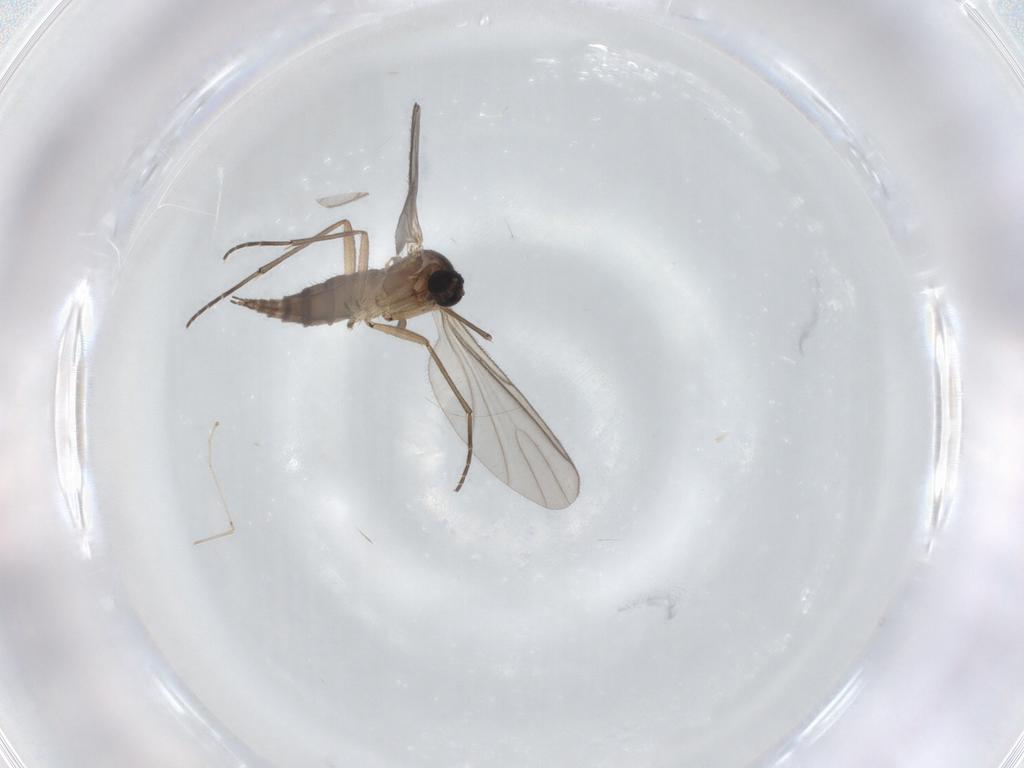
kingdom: Animalia
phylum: Arthropoda
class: Insecta
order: Diptera
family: Sciaridae
